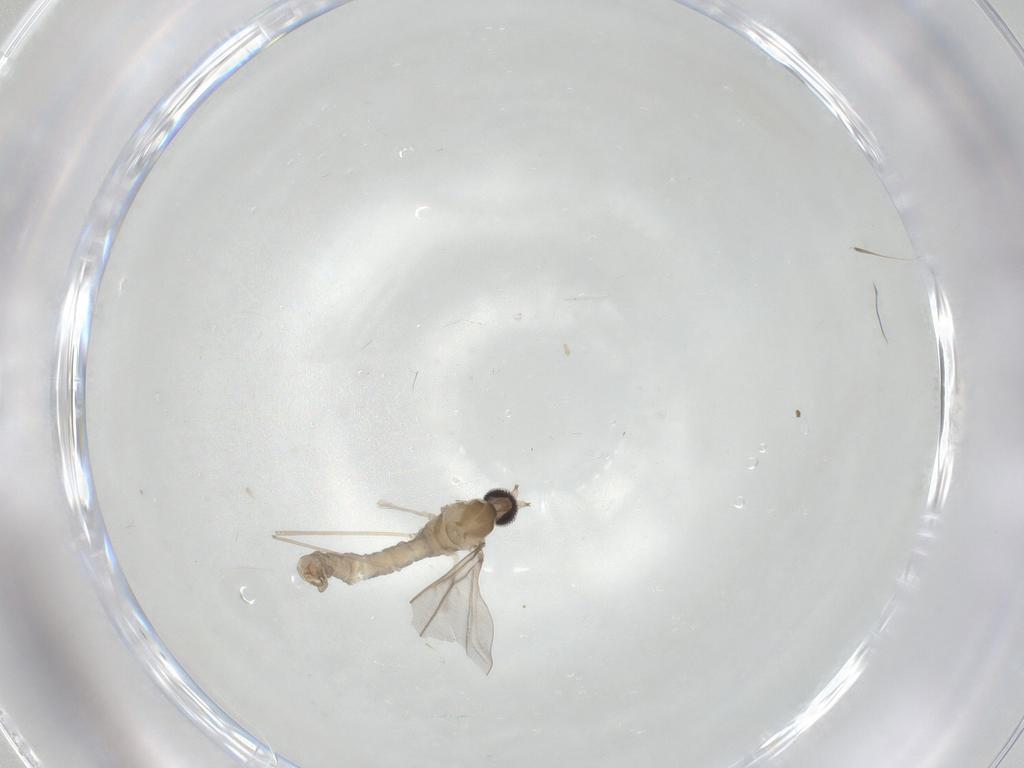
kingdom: Animalia
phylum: Arthropoda
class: Insecta
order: Diptera
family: Cecidomyiidae
